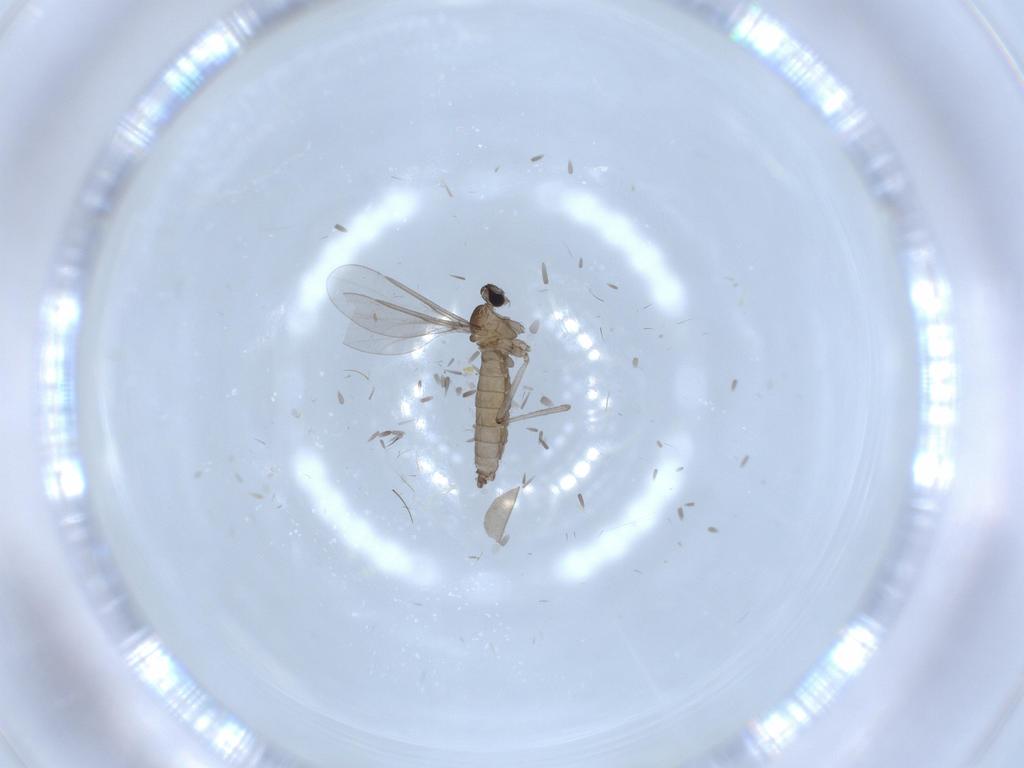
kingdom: Animalia
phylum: Arthropoda
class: Insecta
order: Diptera
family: Cecidomyiidae
